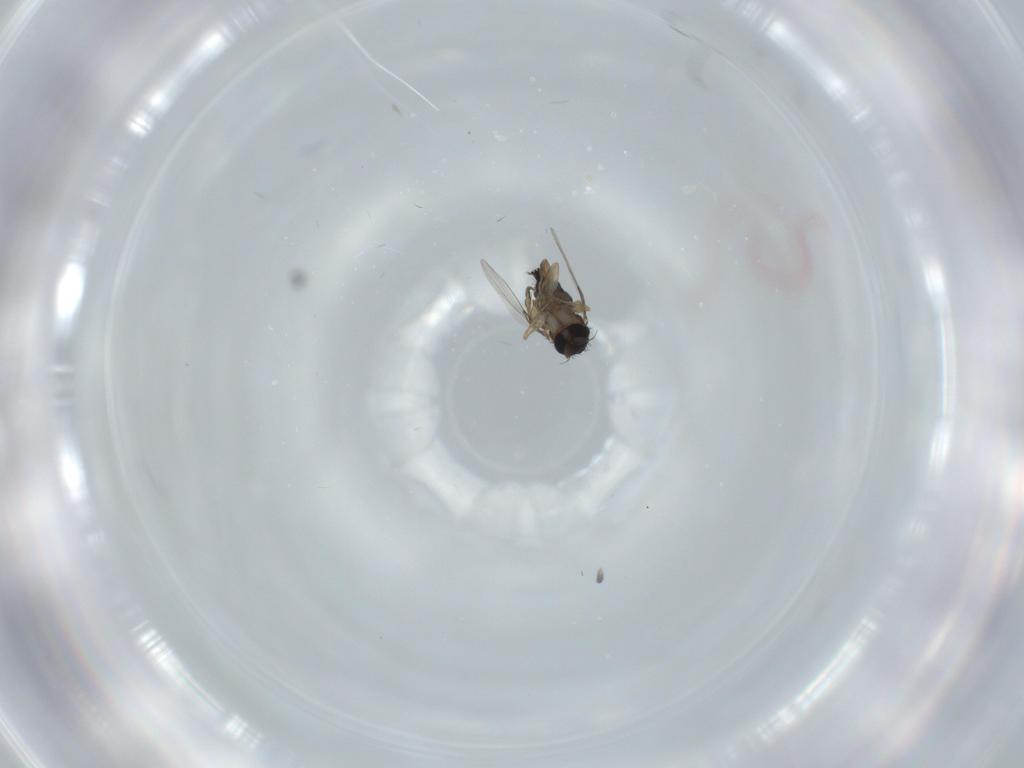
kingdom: Animalia
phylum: Arthropoda
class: Insecta
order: Diptera
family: Phoridae
